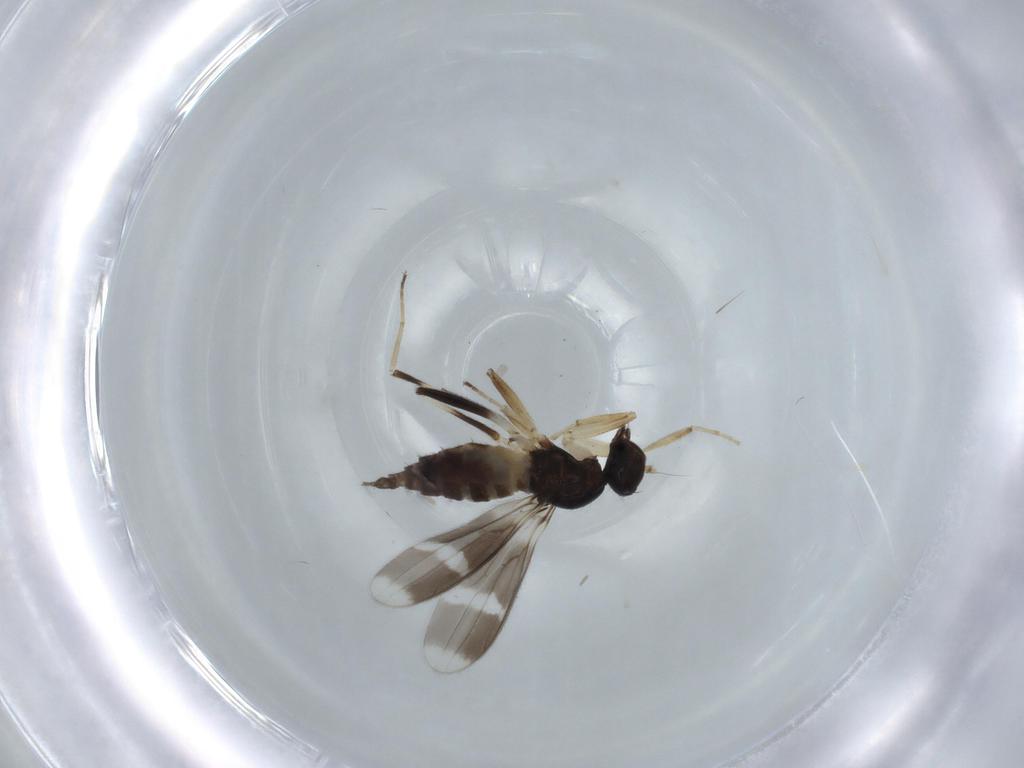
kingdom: Animalia
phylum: Arthropoda
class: Insecta
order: Diptera
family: Hybotidae
